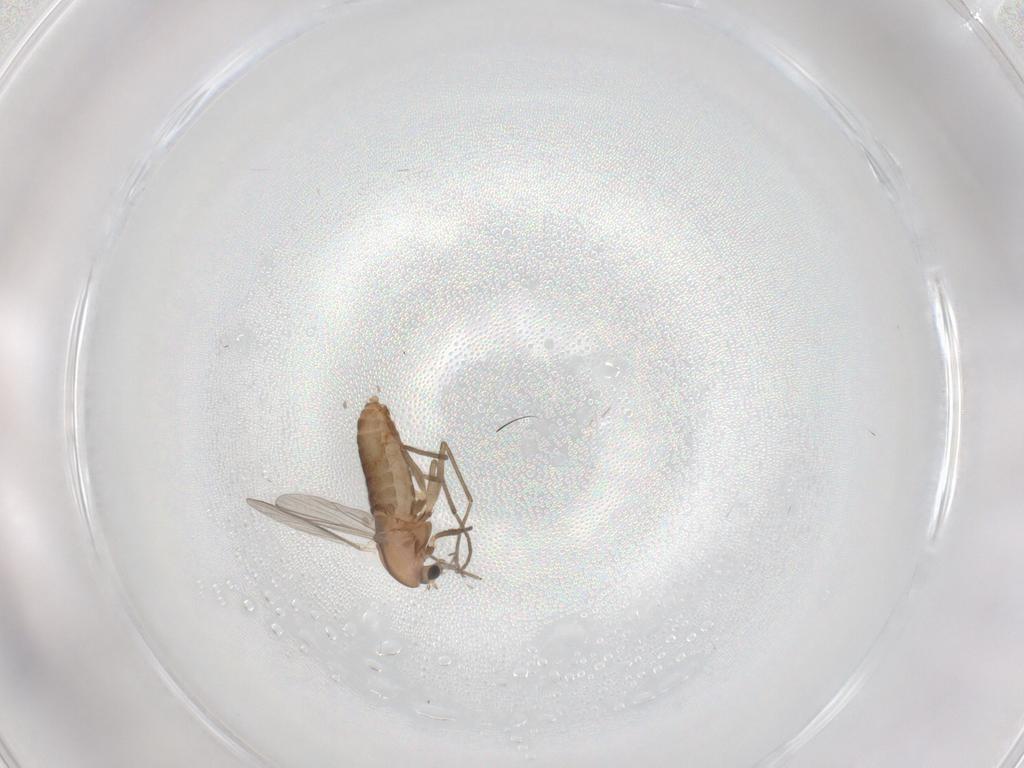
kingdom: Animalia
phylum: Arthropoda
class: Insecta
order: Diptera
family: Chironomidae
